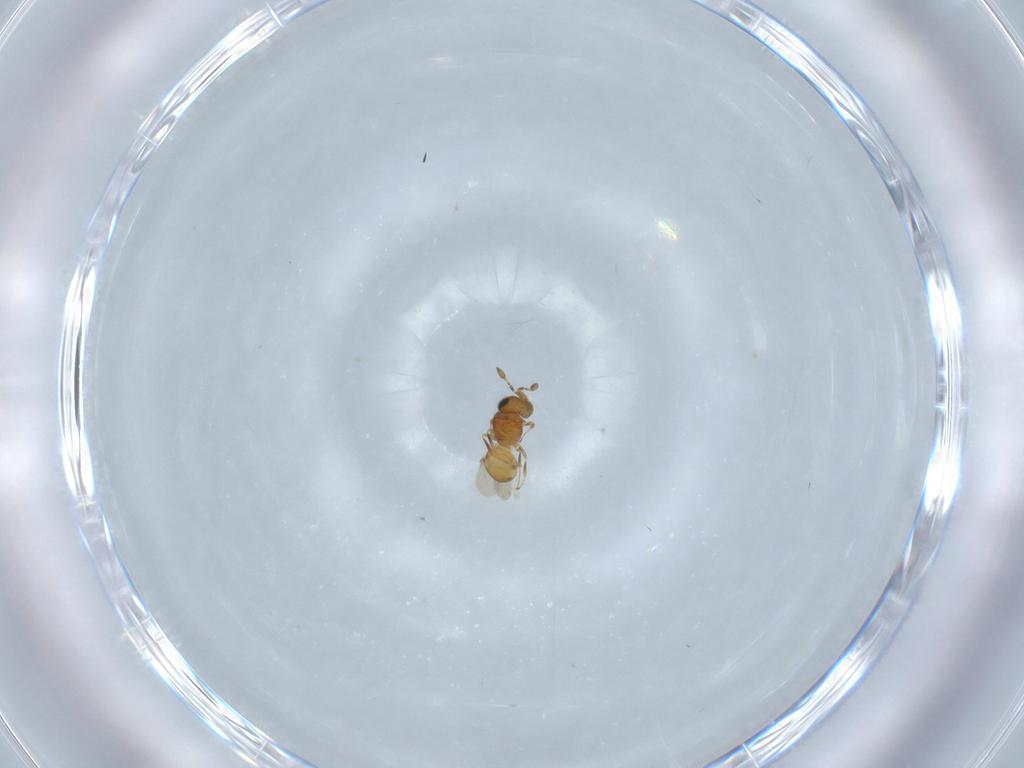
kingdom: Animalia
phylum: Arthropoda
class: Insecta
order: Hymenoptera
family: Scelionidae
